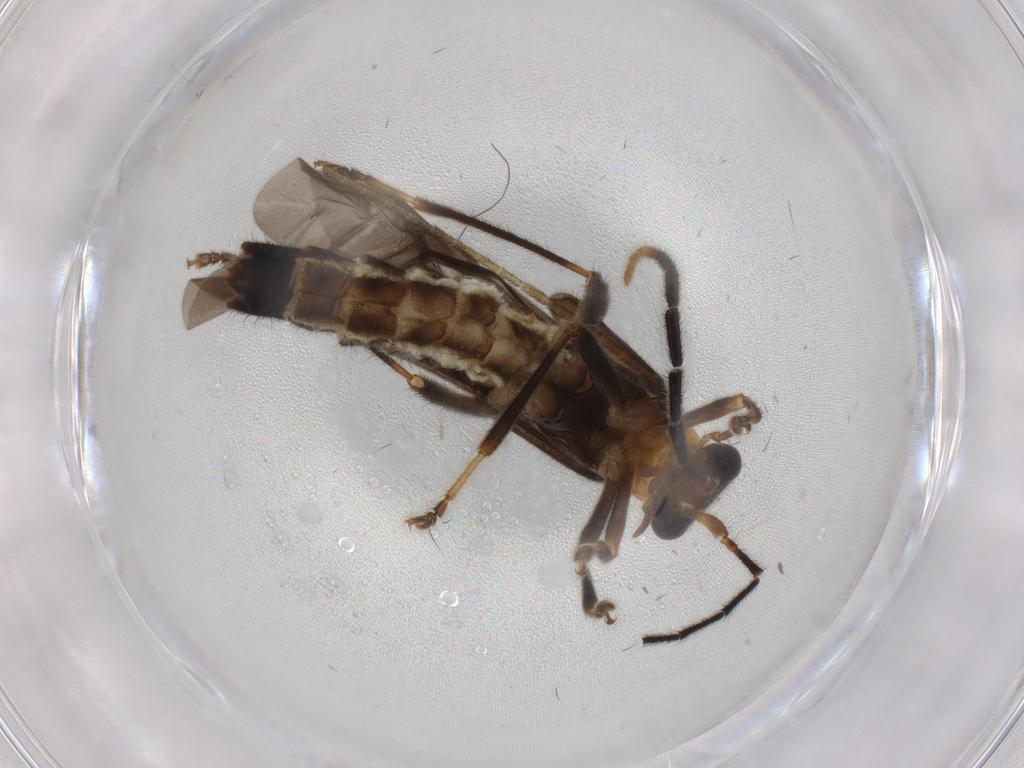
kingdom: Animalia
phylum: Arthropoda
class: Insecta
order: Coleoptera
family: Cantharidae
